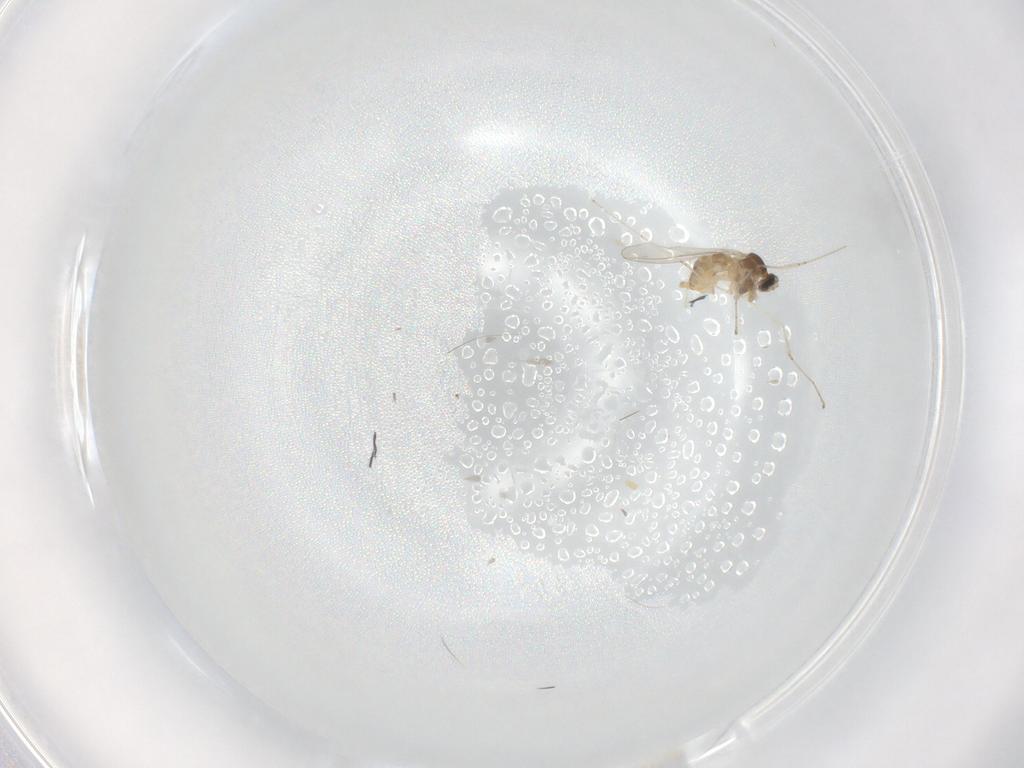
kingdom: Animalia
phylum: Arthropoda
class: Insecta
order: Diptera
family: Cecidomyiidae
